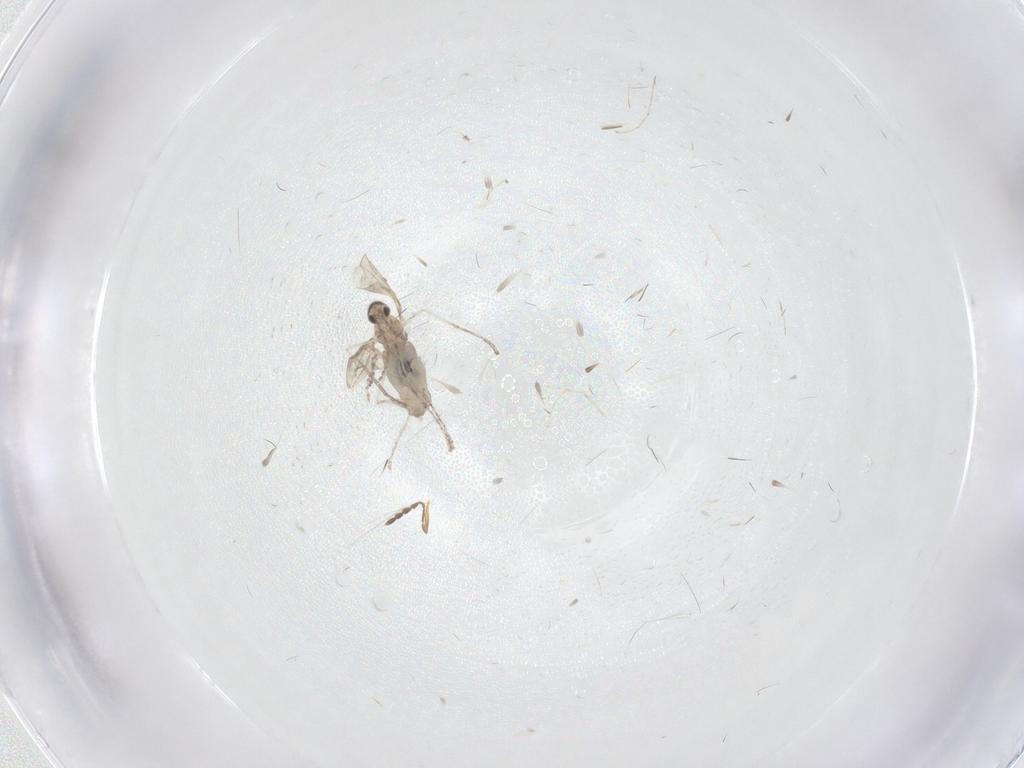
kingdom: Animalia
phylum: Arthropoda
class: Insecta
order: Diptera
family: Cecidomyiidae
